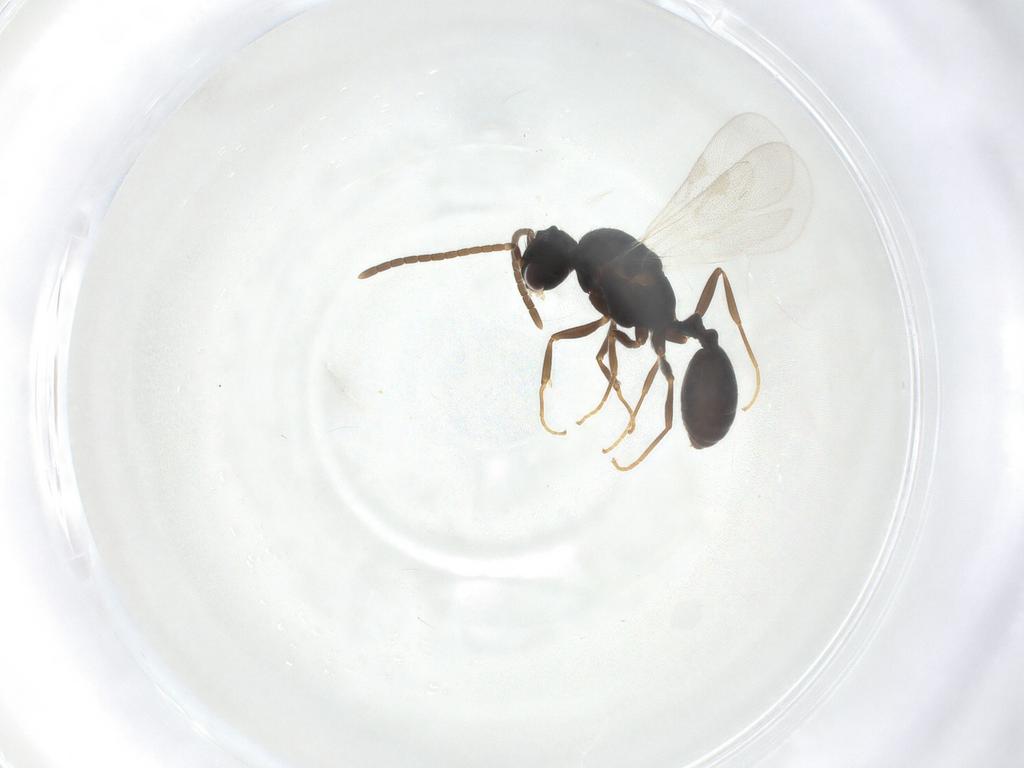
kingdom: Animalia
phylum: Arthropoda
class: Insecta
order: Hymenoptera
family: Formicidae
